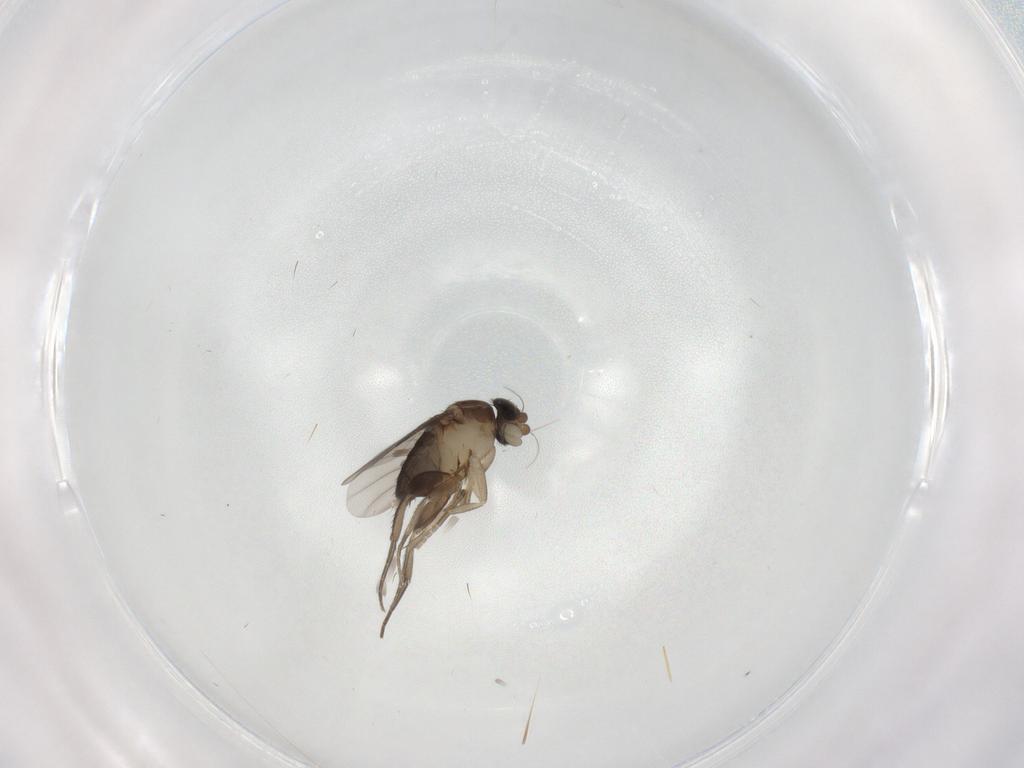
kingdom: Animalia
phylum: Arthropoda
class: Insecta
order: Diptera
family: Phoridae
